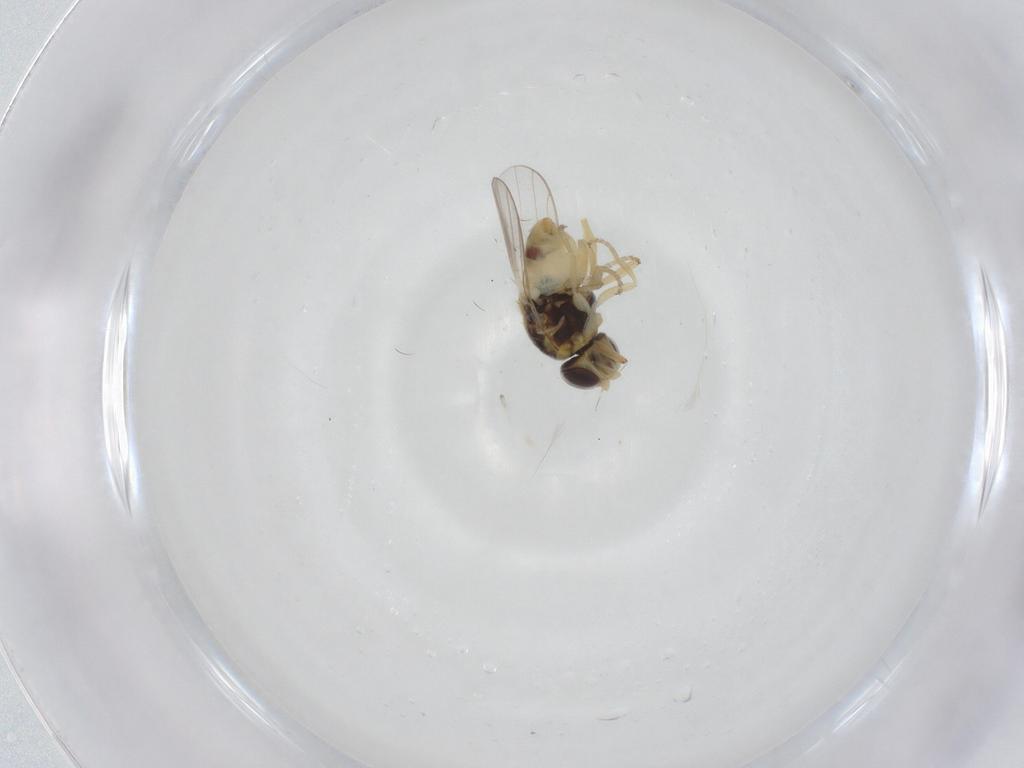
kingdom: Animalia
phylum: Arthropoda
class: Insecta
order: Diptera
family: Chloropidae
